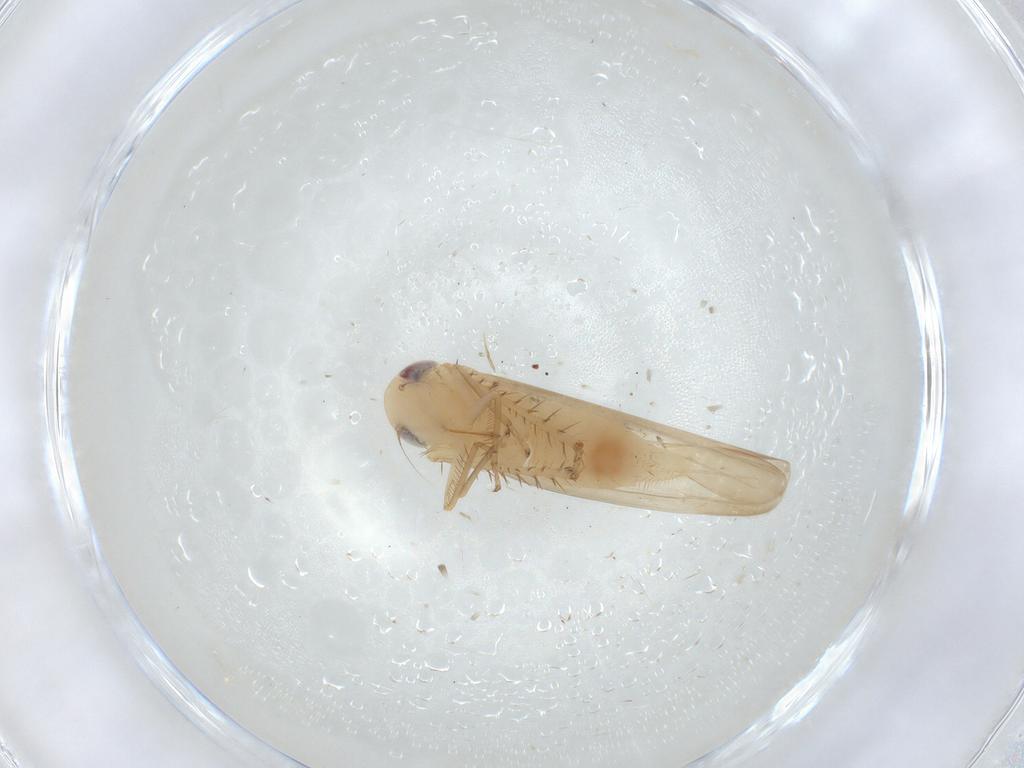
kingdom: Animalia
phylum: Arthropoda
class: Insecta
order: Hemiptera
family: Cicadellidae
